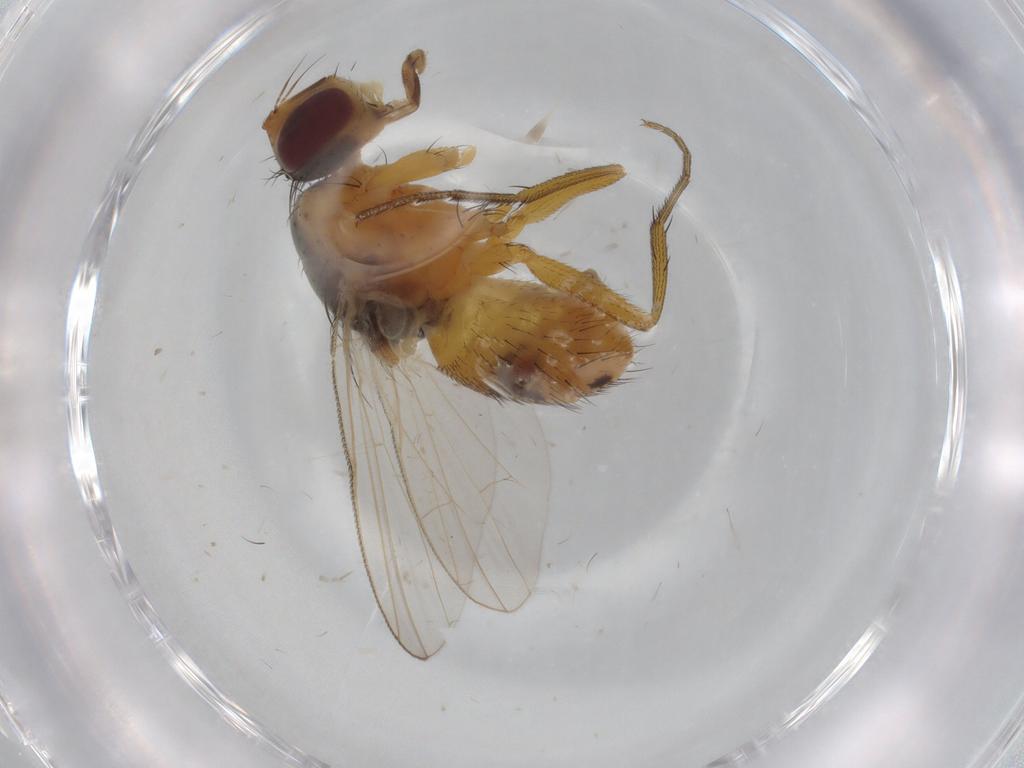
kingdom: Animalia
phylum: Arthropoda
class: Insecta
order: Diptera
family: Muscidae
